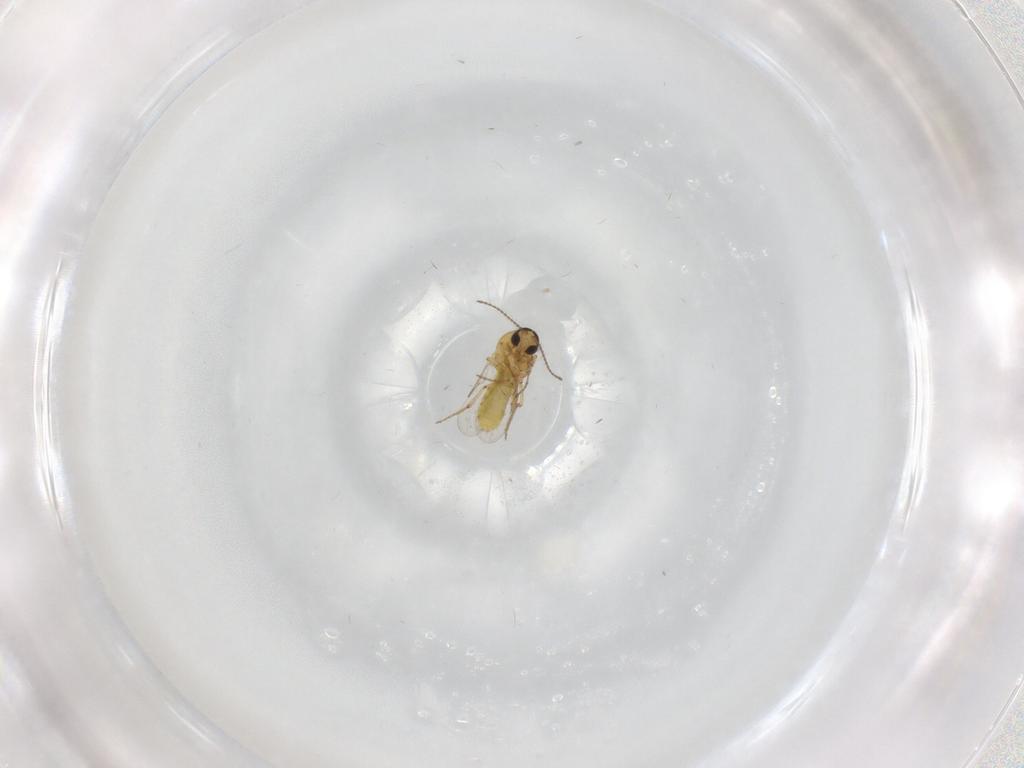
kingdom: Animalia
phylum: Arthropoda
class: Insecta
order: Diptera
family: Ceratopogonidae
